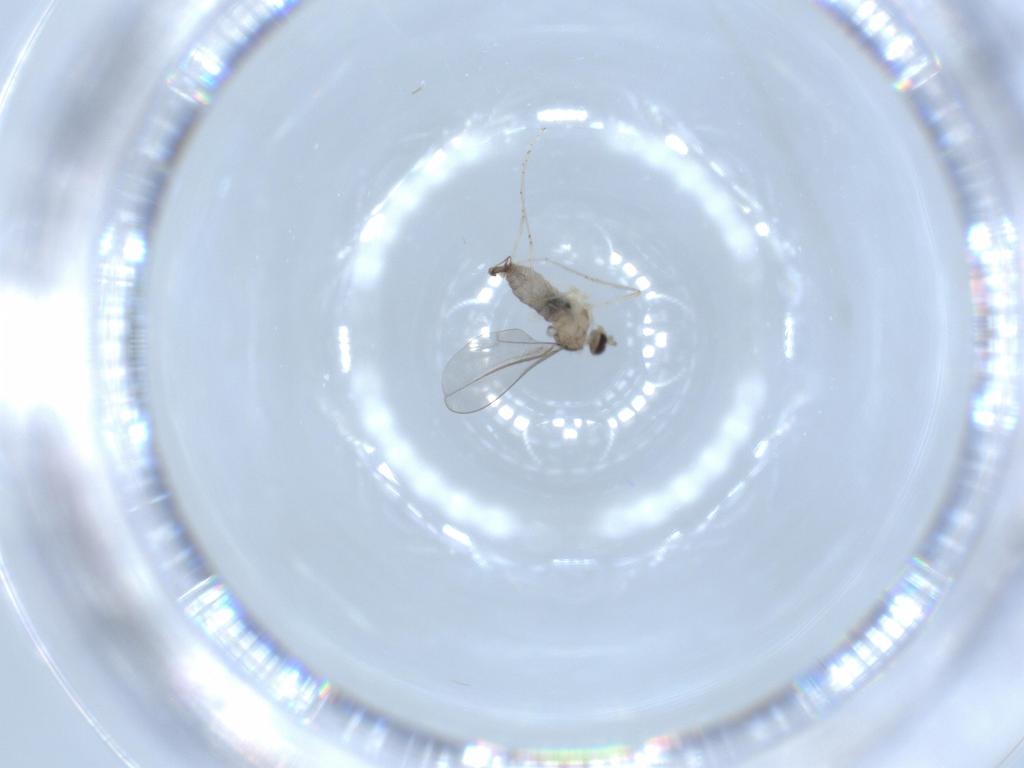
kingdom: Animalia
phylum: Arthropoda
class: Insecta
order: Diptera
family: Cecidomyiidae
